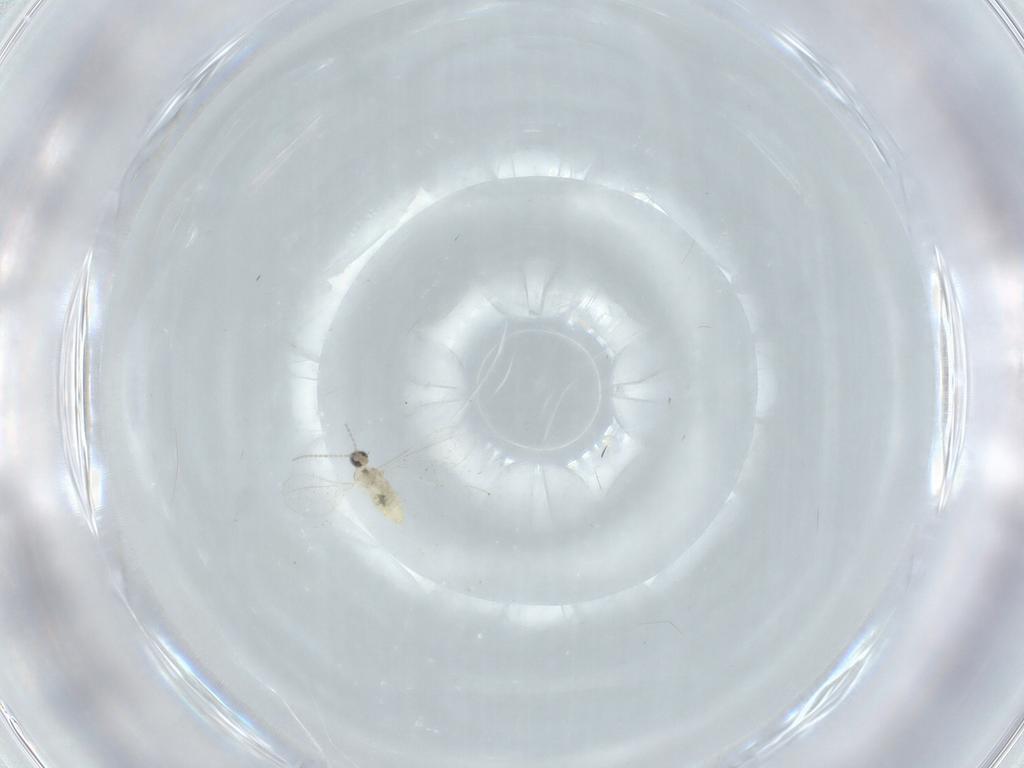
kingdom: Animalia
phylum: Arthropoda
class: Insecta
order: Diptera
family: Cecidomyiidae
